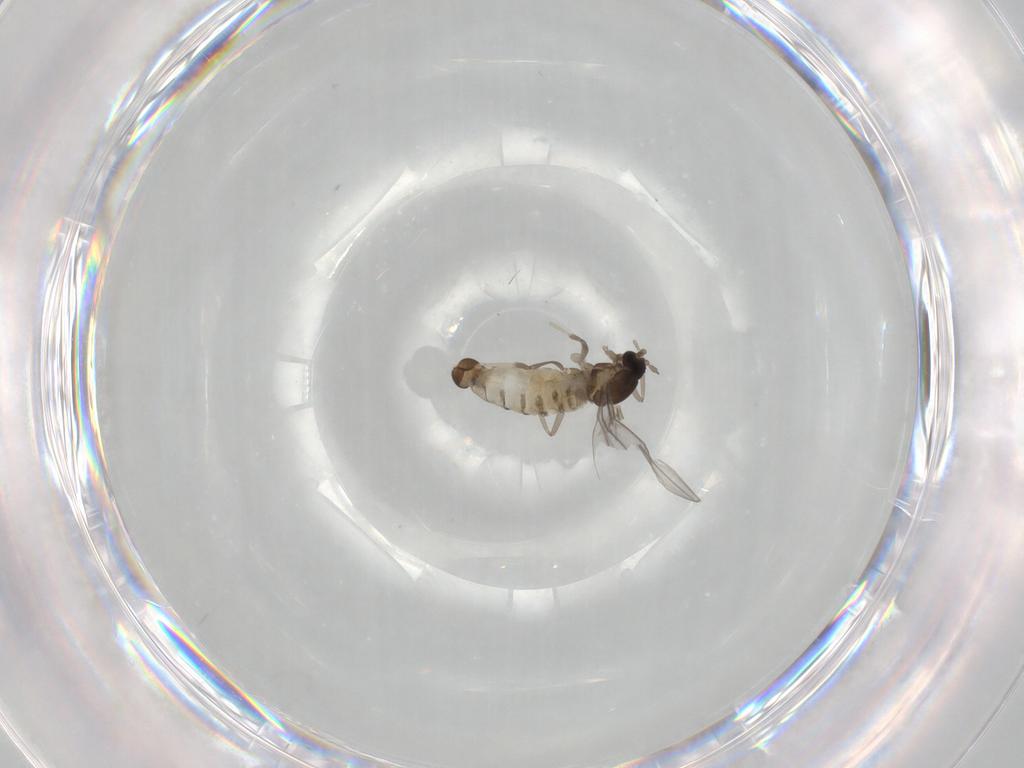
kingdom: Animalia
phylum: Arthropoda
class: Insecta
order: Diptera
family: Cecidomyiidae
